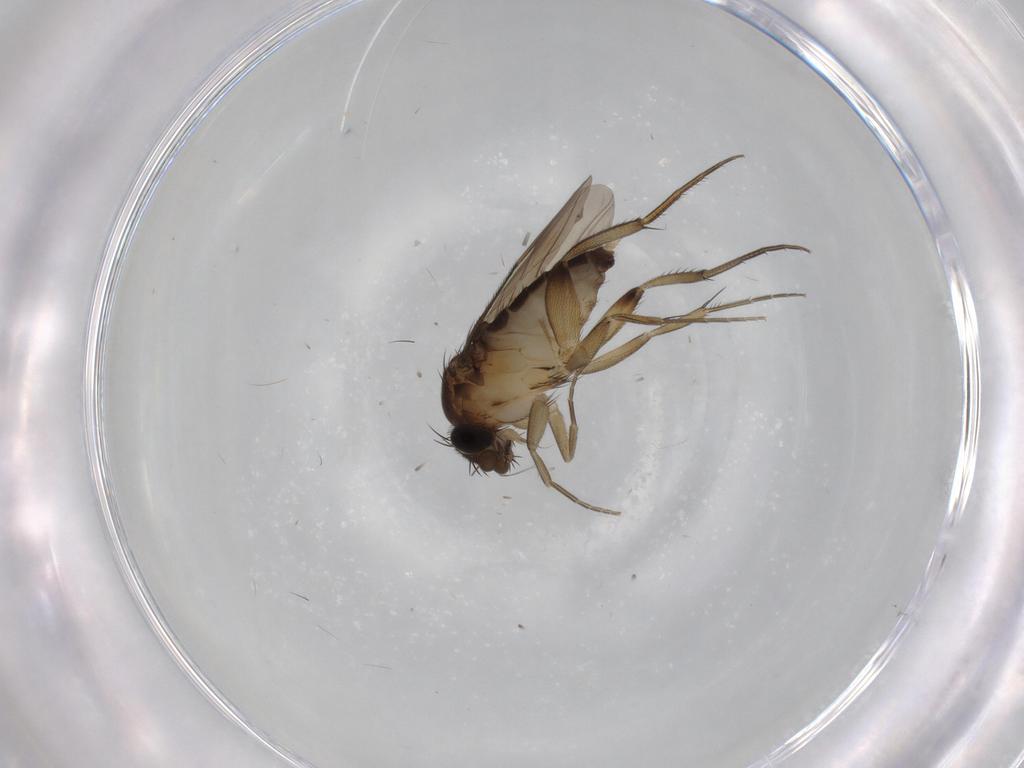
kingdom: Animalia
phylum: Arthropoda
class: Insecta
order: Diptera
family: Phoridae
